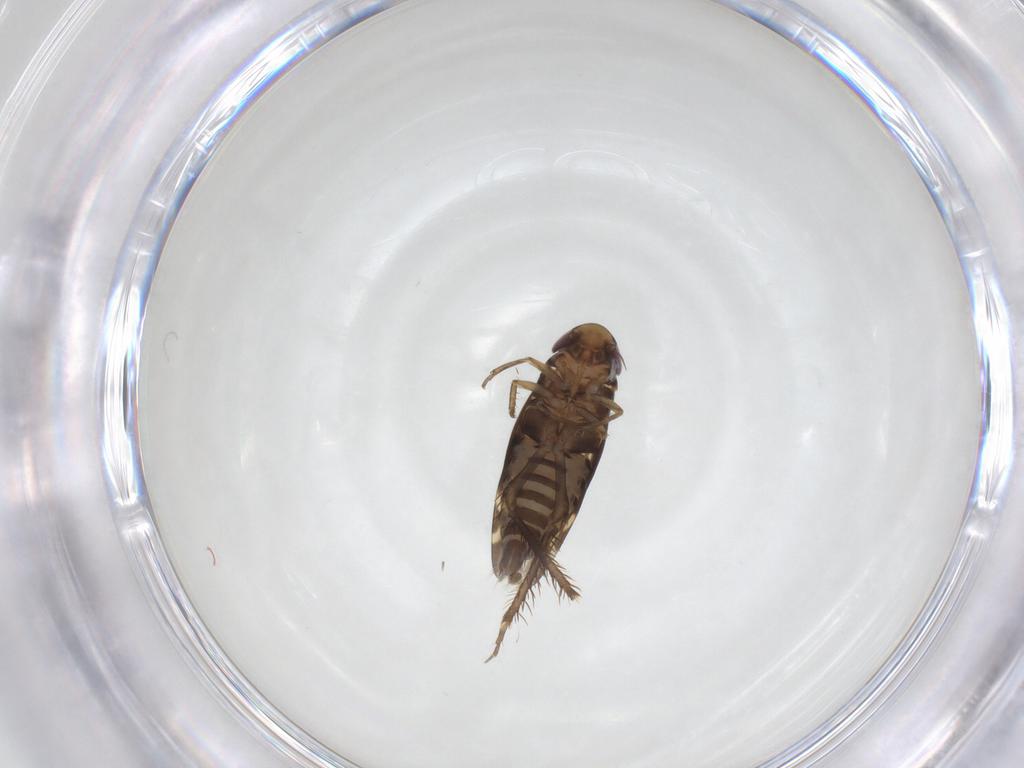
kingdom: Animalia
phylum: Arthropoda
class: Insecta
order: Hemiptera
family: Cicadellidae
